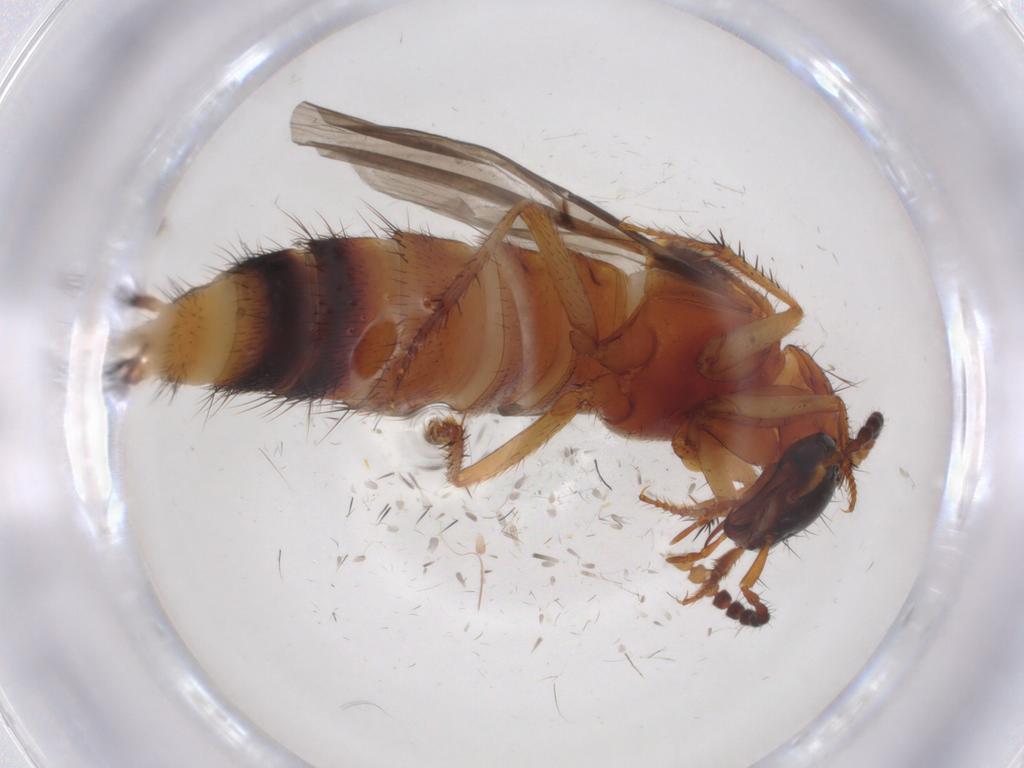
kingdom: Animalia
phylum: Arthropoda
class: Insecta
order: Coleoptera
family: Staphylinidae
